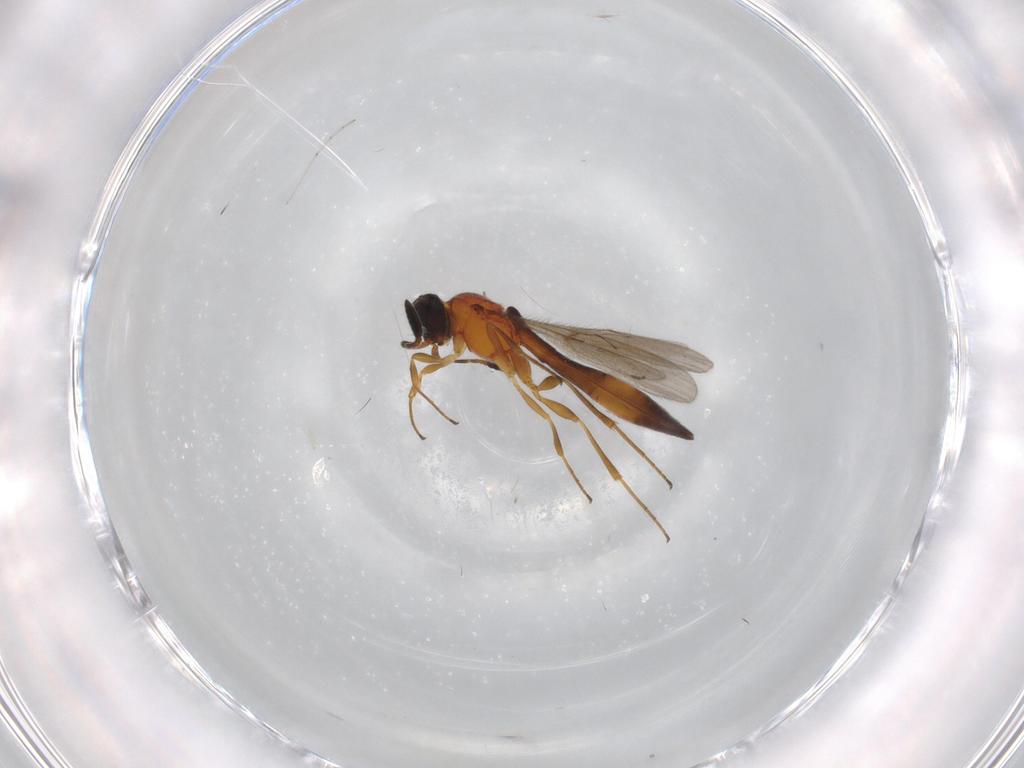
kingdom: Animalia
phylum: Arthropoda
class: Insecta
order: Hymenoptera
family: Scelionidae
